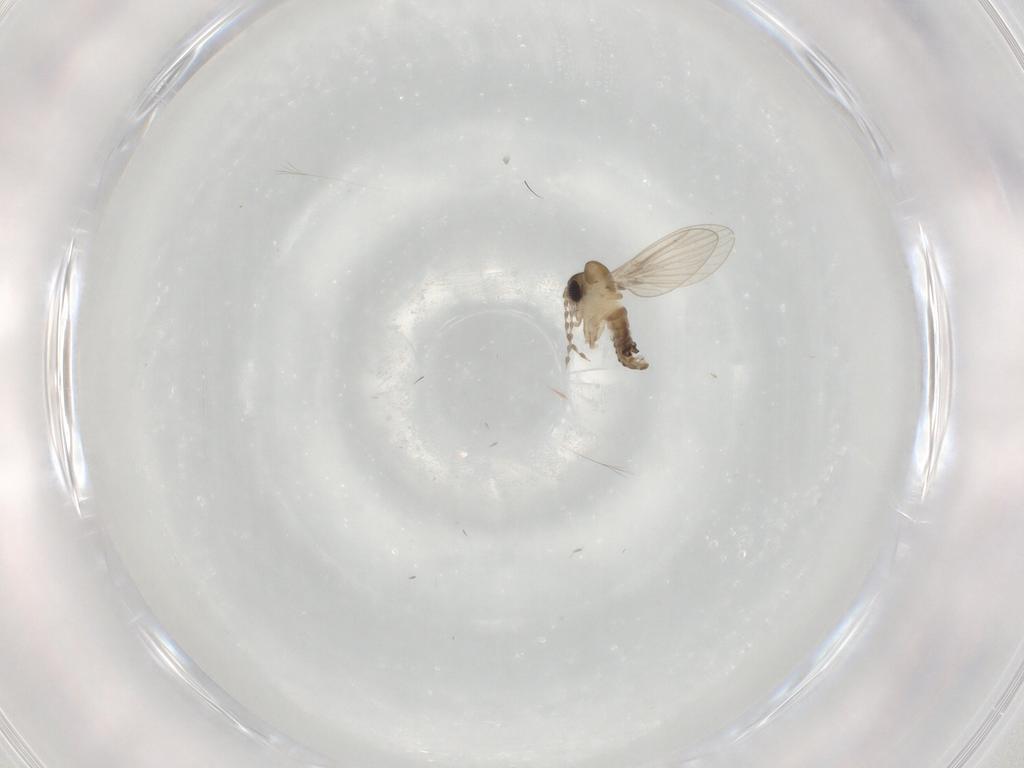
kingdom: Animalia
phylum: Arthropoda
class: Insecta
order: Diptera
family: Psychodidae
